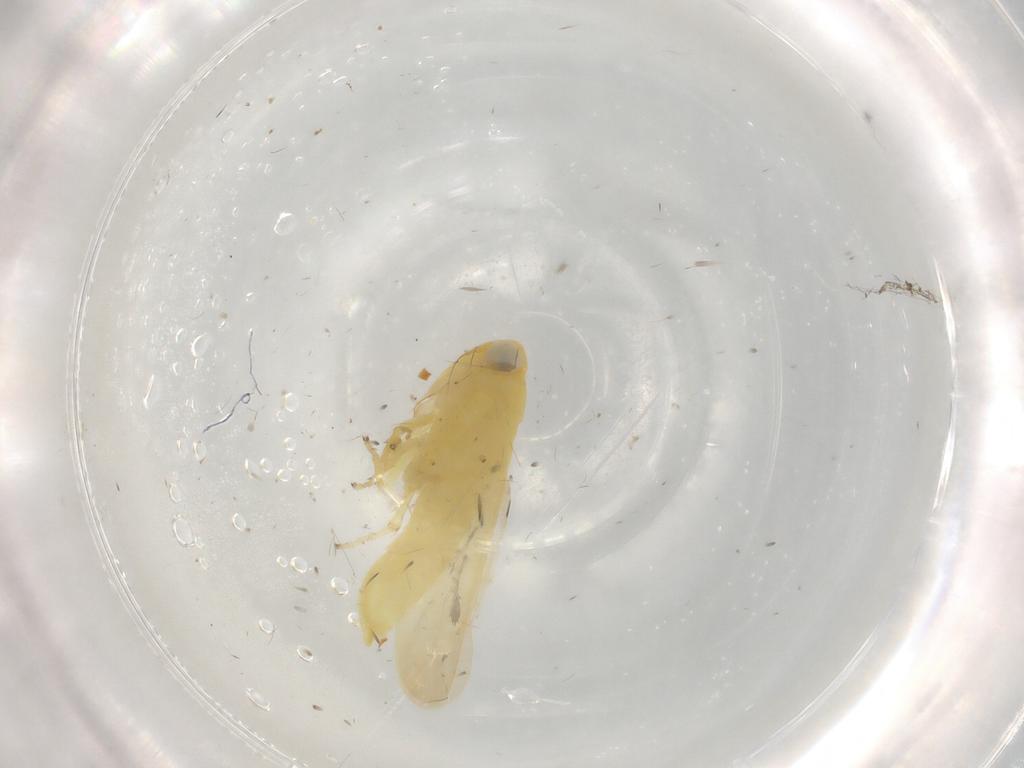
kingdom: Animalia
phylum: Arthropoda
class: Insecta
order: Hemiptera
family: Cicadellidae
